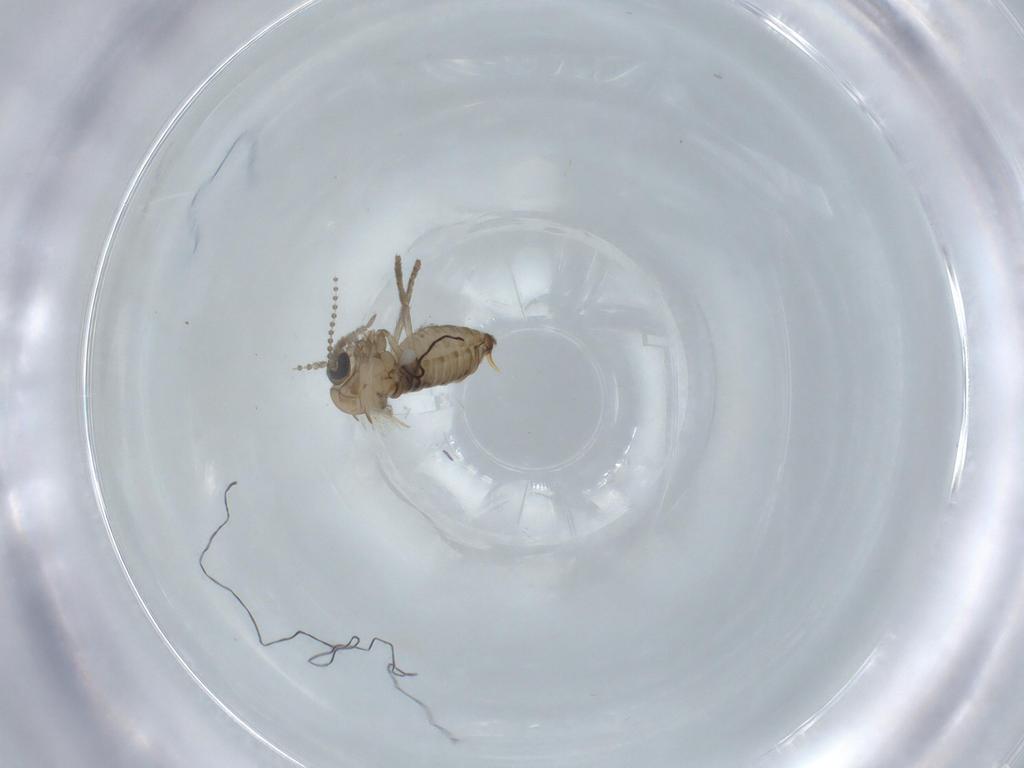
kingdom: Animalia
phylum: Arthropoda
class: Insecta
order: Diptera
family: Psychodidae
